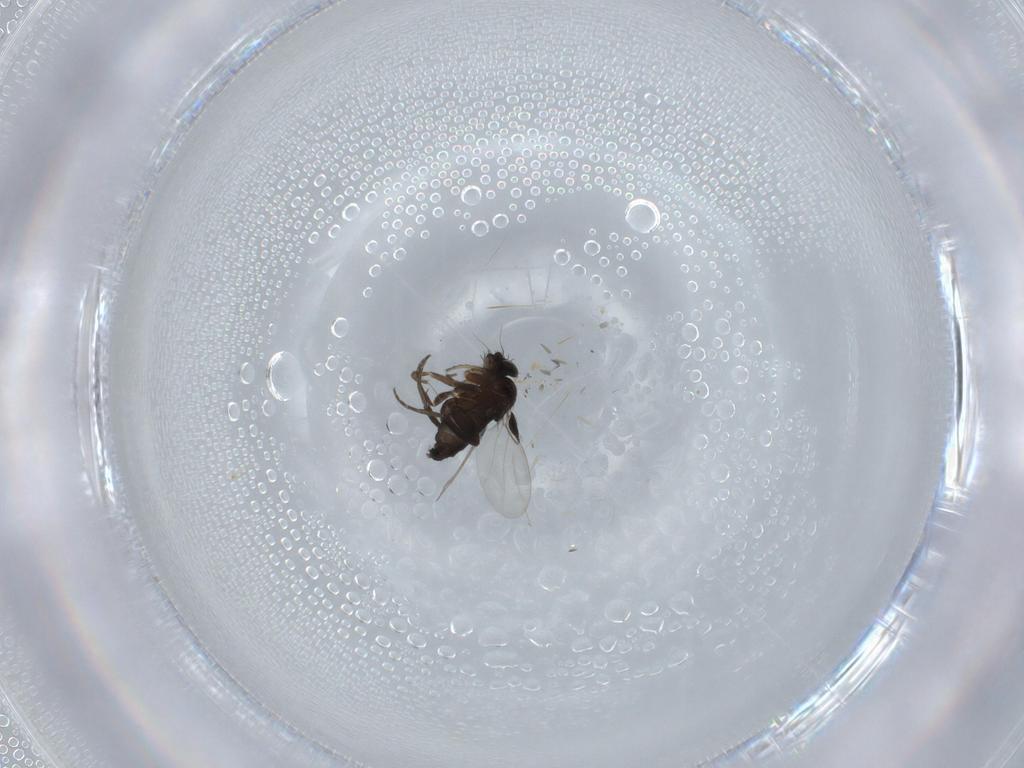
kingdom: Animalia
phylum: Arthropoda
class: Insecta
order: Diptera
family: Phoridae
